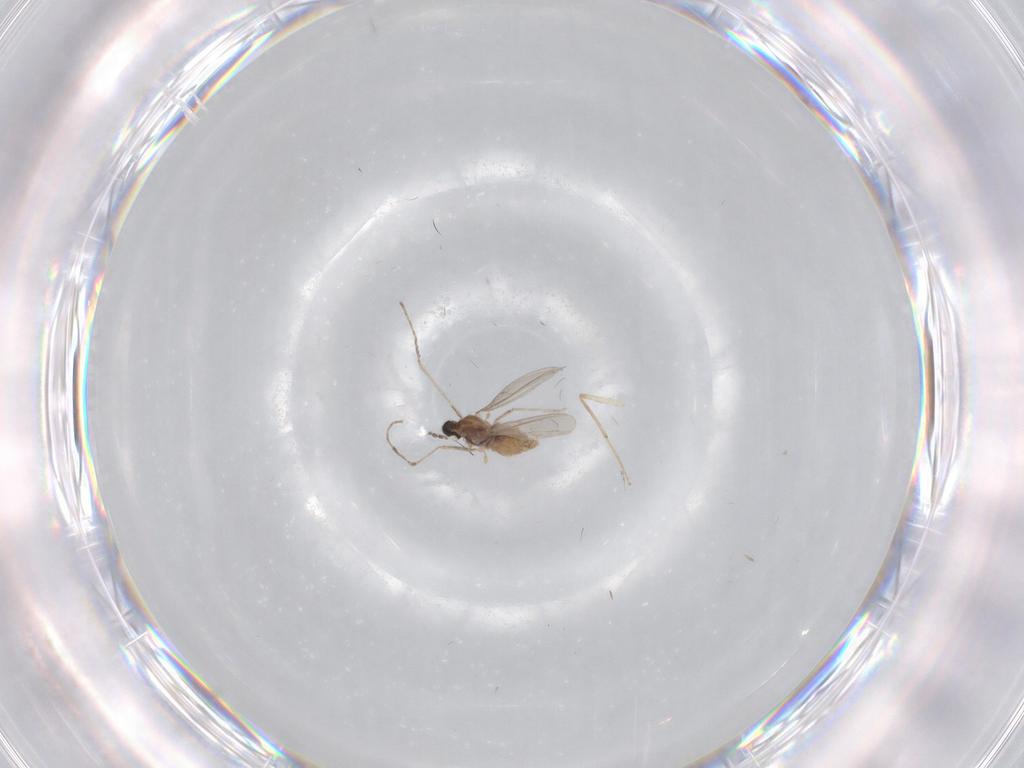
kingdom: Animalia
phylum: Arthropoda
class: Insecta
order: Diptera
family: Cecidomyiidae
